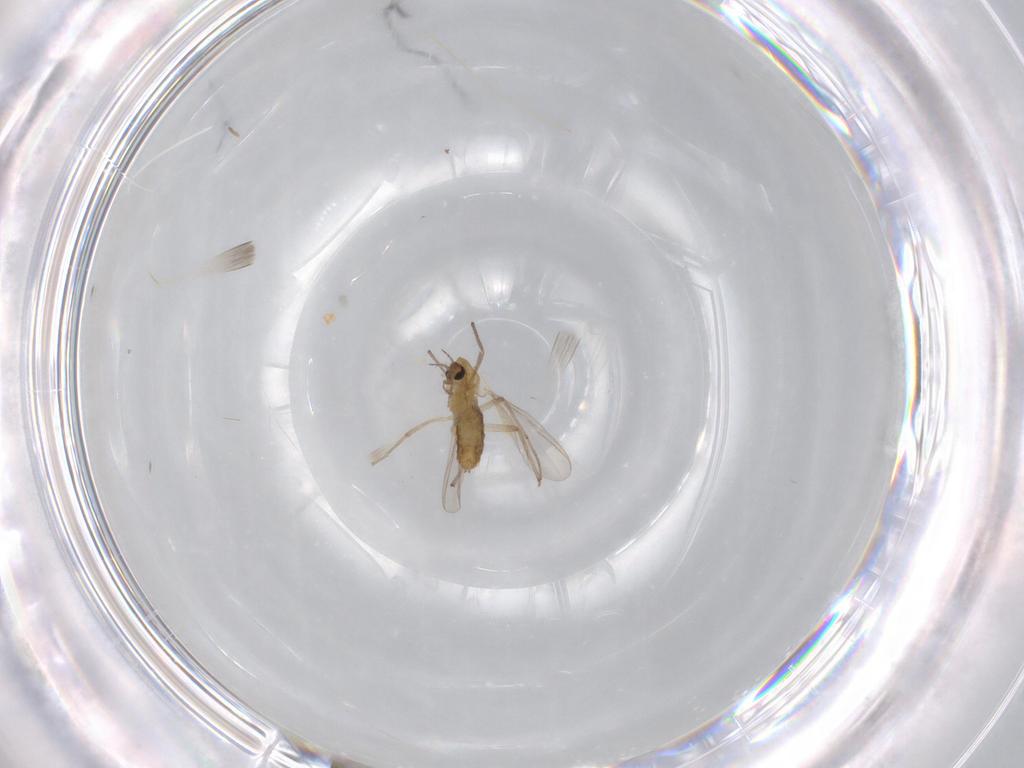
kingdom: Animalia
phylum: Arthropoda
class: Insecta
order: Diptera
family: Chironomidae
